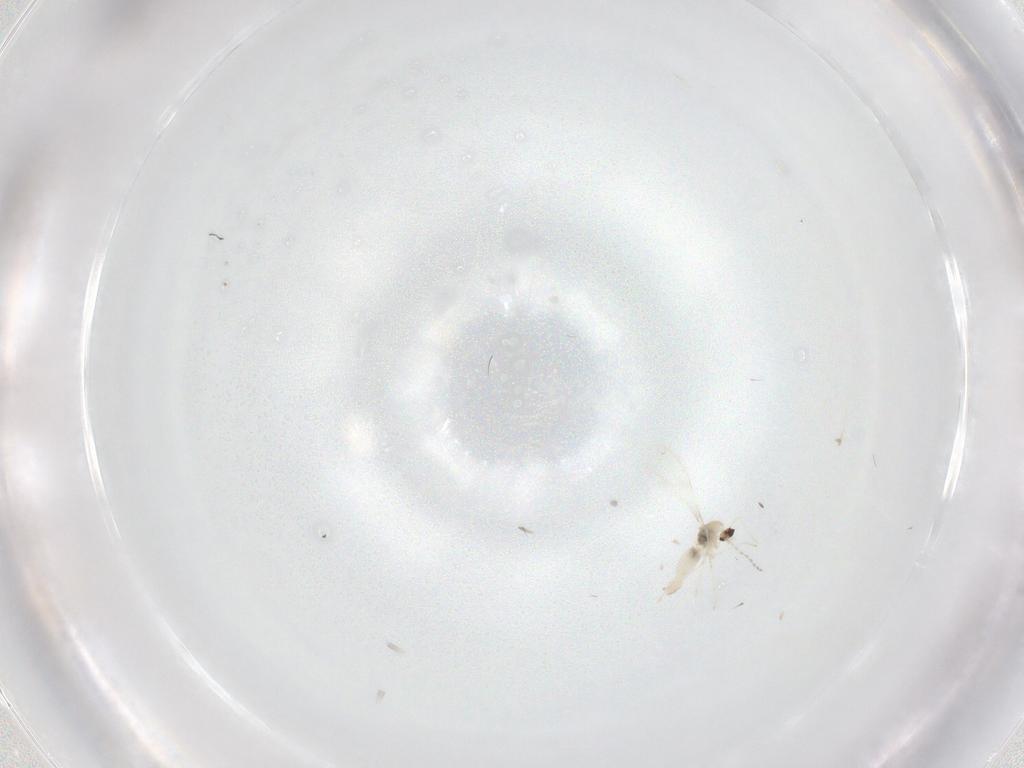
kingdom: Animalia
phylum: Arthropoda
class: Insecta
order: Diptera
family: Cecidomyiidae
